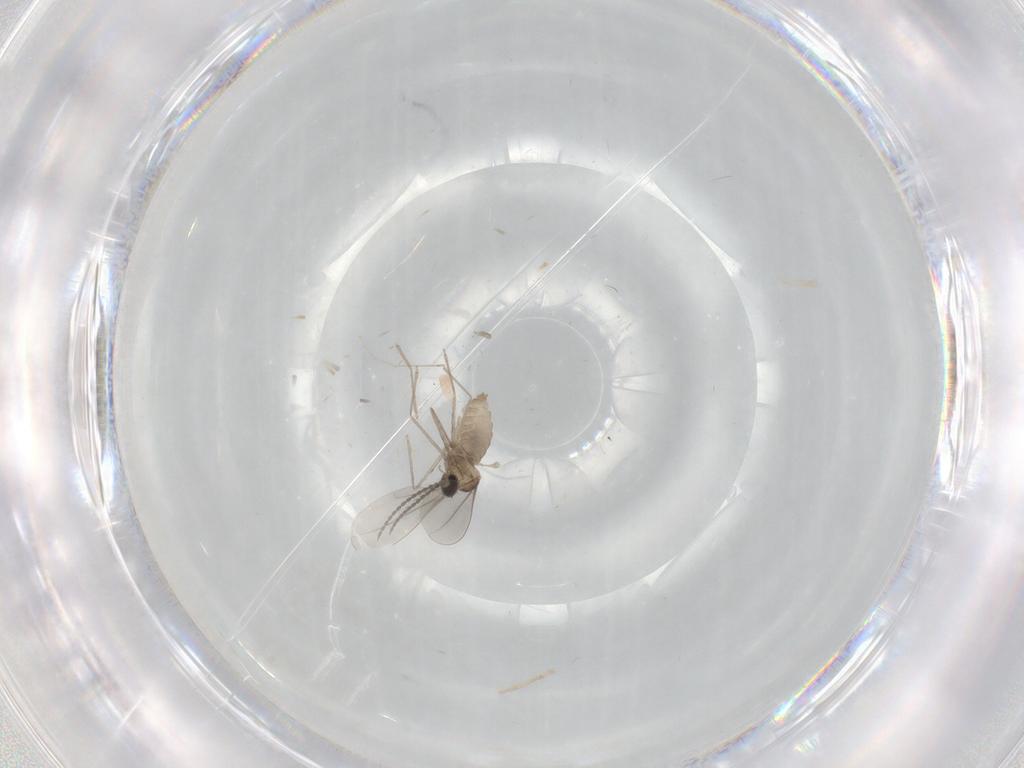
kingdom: Animalia
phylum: Arthropoda
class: Insecta
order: Diptera
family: Cecidomyiidae
